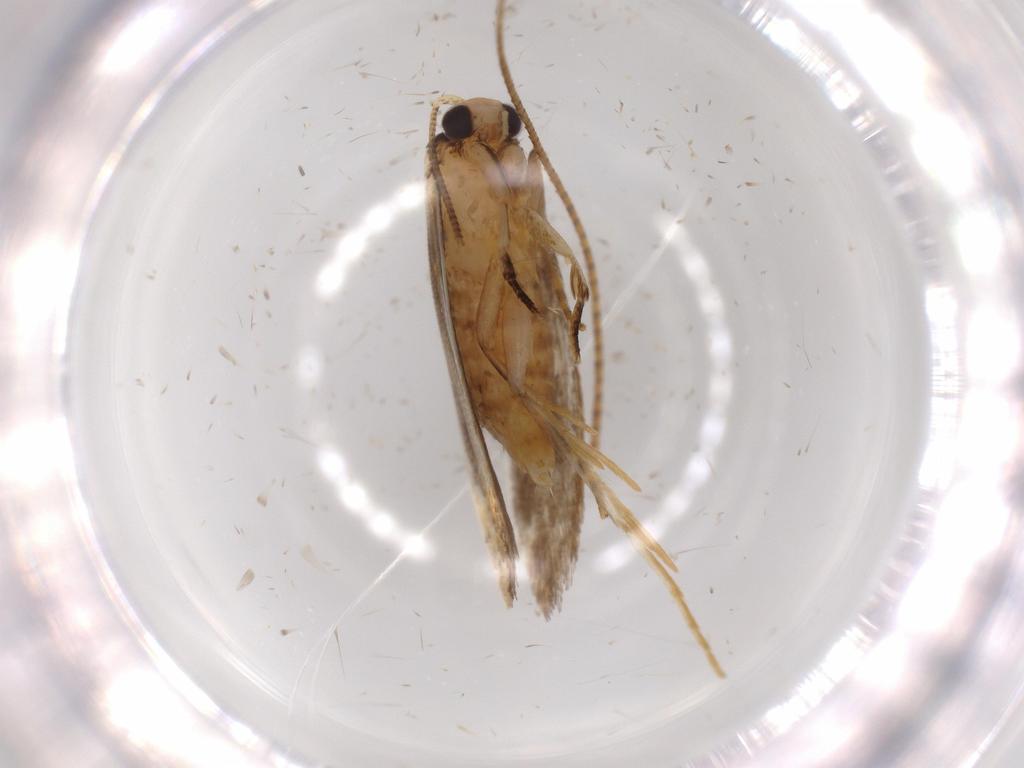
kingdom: Animalia
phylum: Arthropoda
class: Insecta
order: Lepidoptera
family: Tineidae
